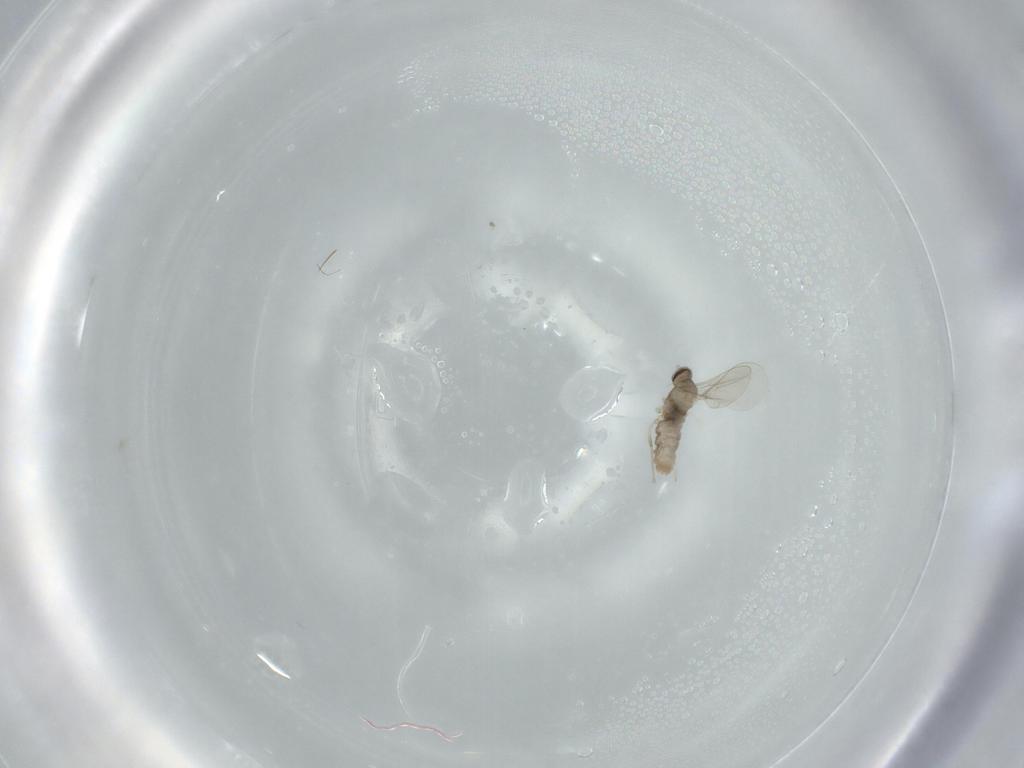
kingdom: Animalia
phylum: Arthropoda
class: Insecta
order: Diptera
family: Cecidomyiidae
